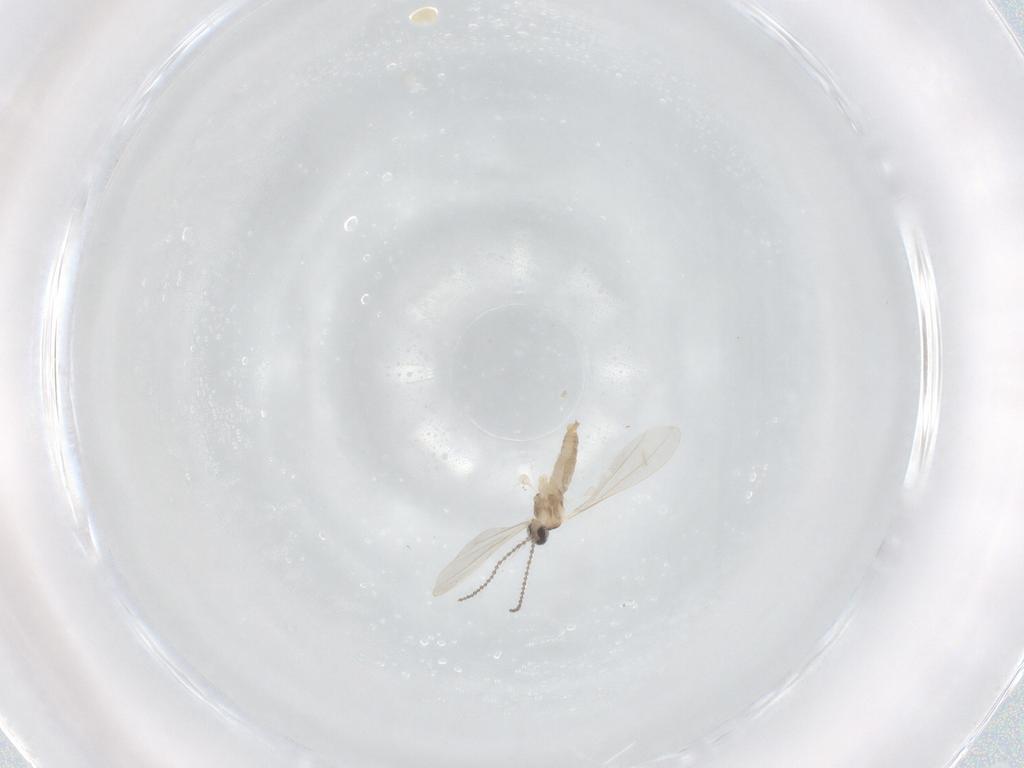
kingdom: Animalia
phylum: Arthropoda
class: Insecta
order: Diptera
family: Cecidomyiidae
